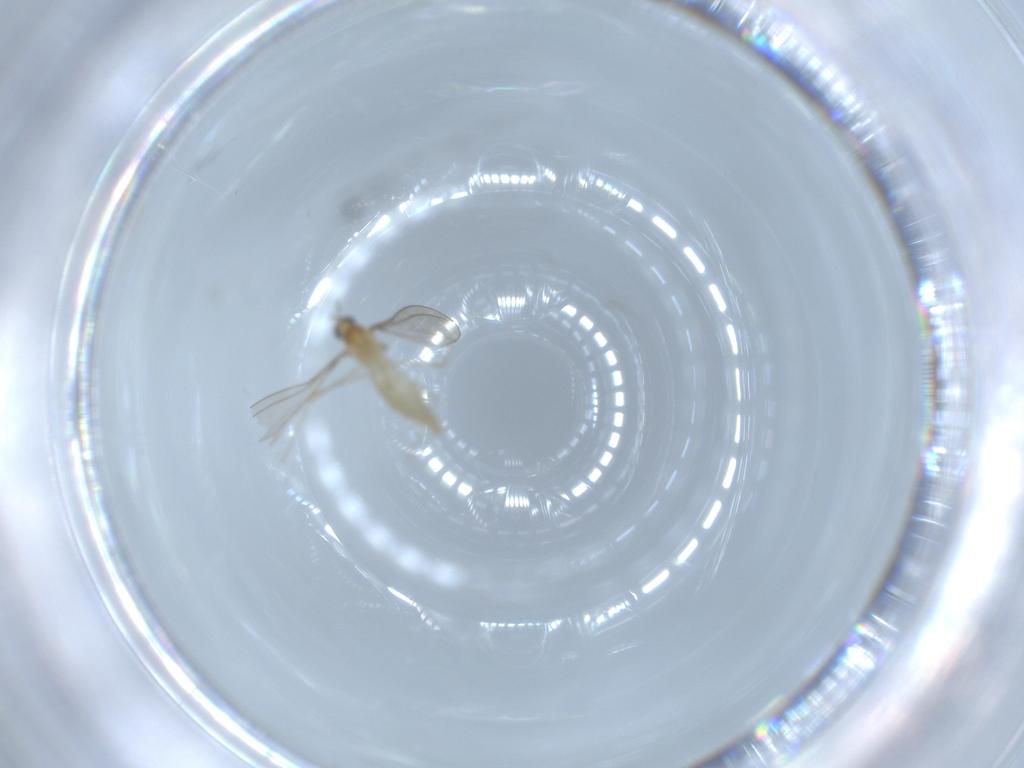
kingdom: Animalia
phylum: Arthropoda
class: Insecta
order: Diptera
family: Cecidomyiidae
